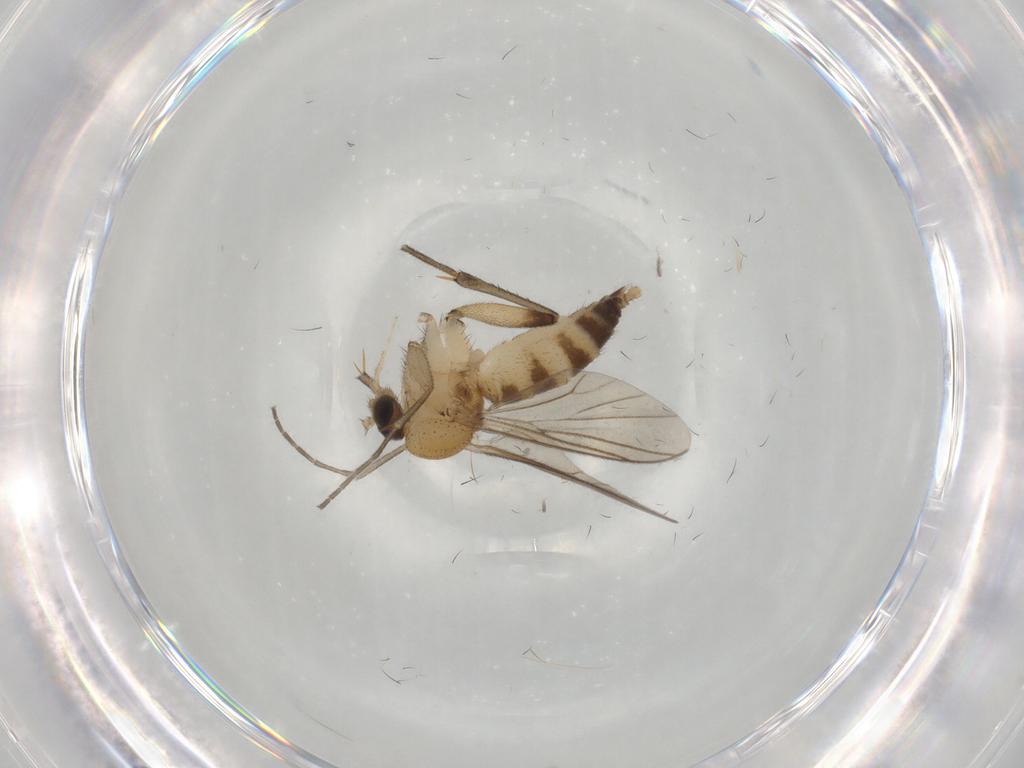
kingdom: Animalia
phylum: Arthropoda
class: Insecta
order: Diptera
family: Mycetophilidae
